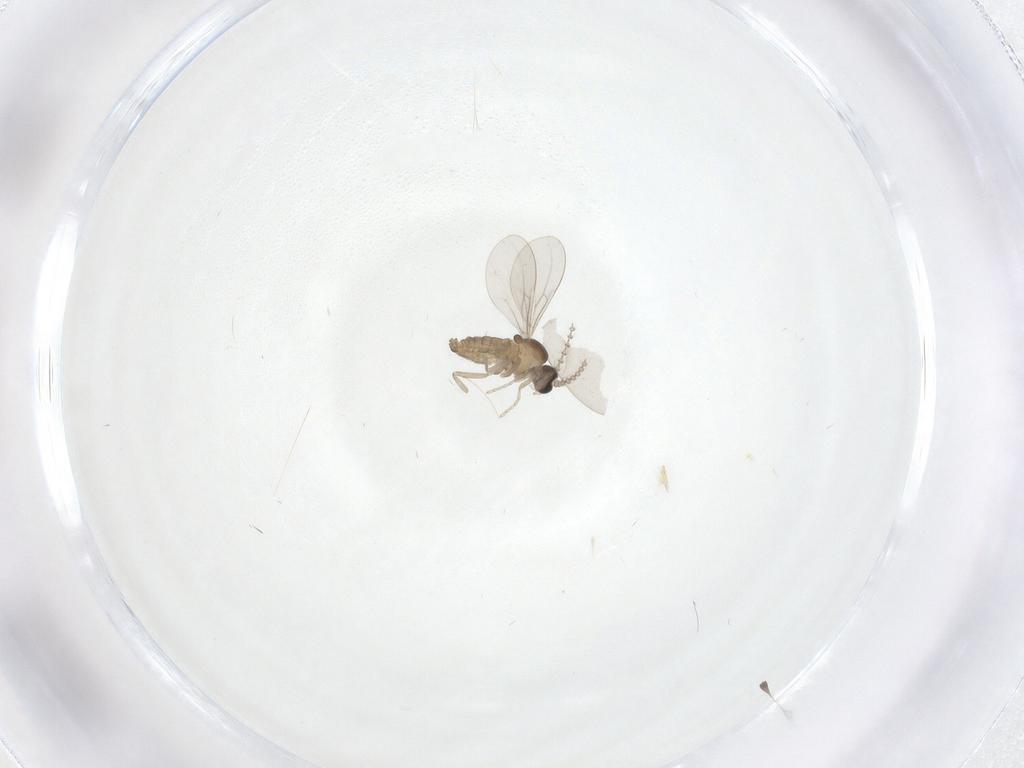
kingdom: Animalia
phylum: Arthropoda
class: Insecta
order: Diptera
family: Cecidomyiidae
